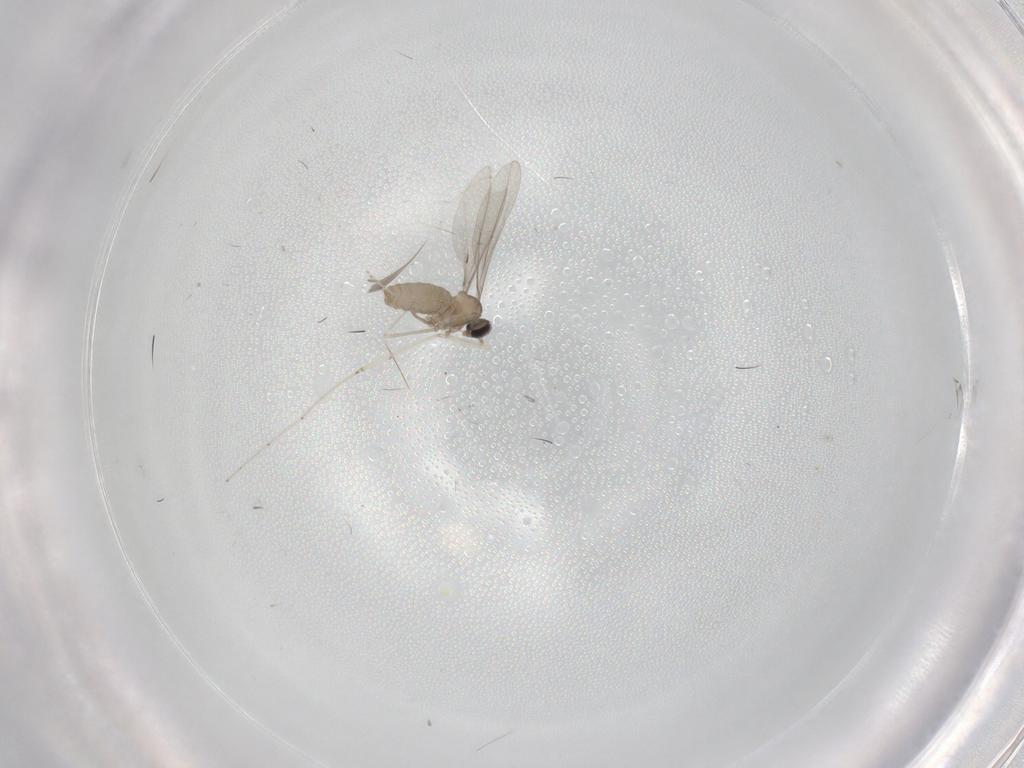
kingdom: Animalia
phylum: Arthropoda
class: Insecta
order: Diptera
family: Cecidomyiidae
